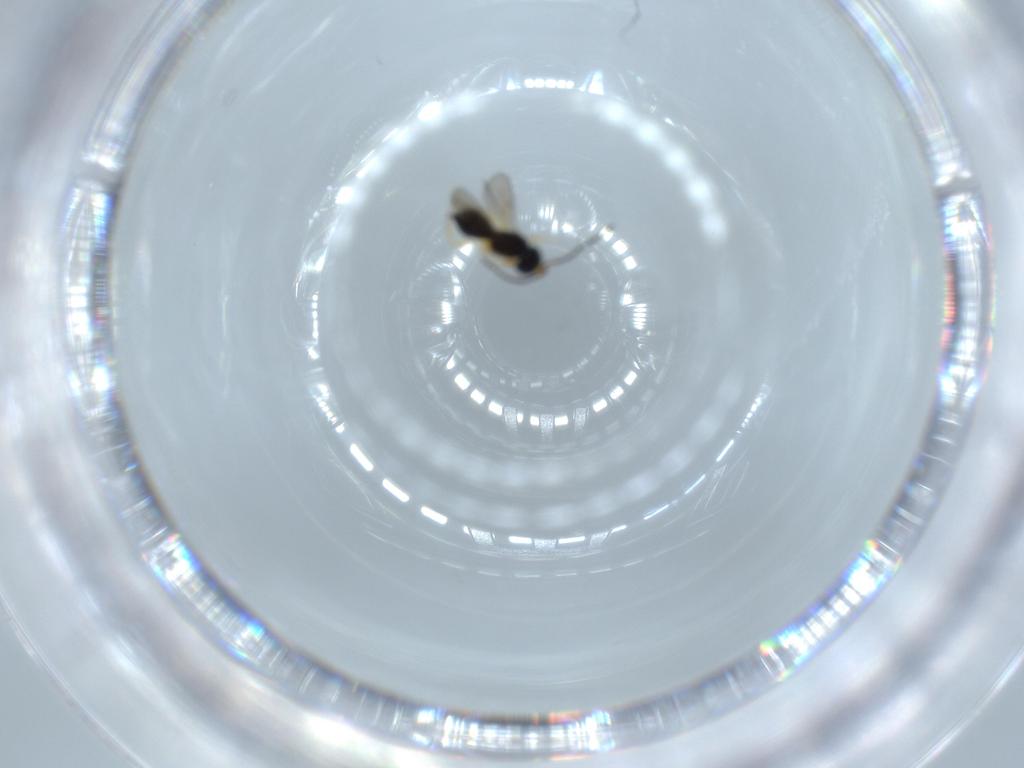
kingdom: Animalia
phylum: Arthropoda
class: Insecta
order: Hymenoptera
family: Scelionidae
